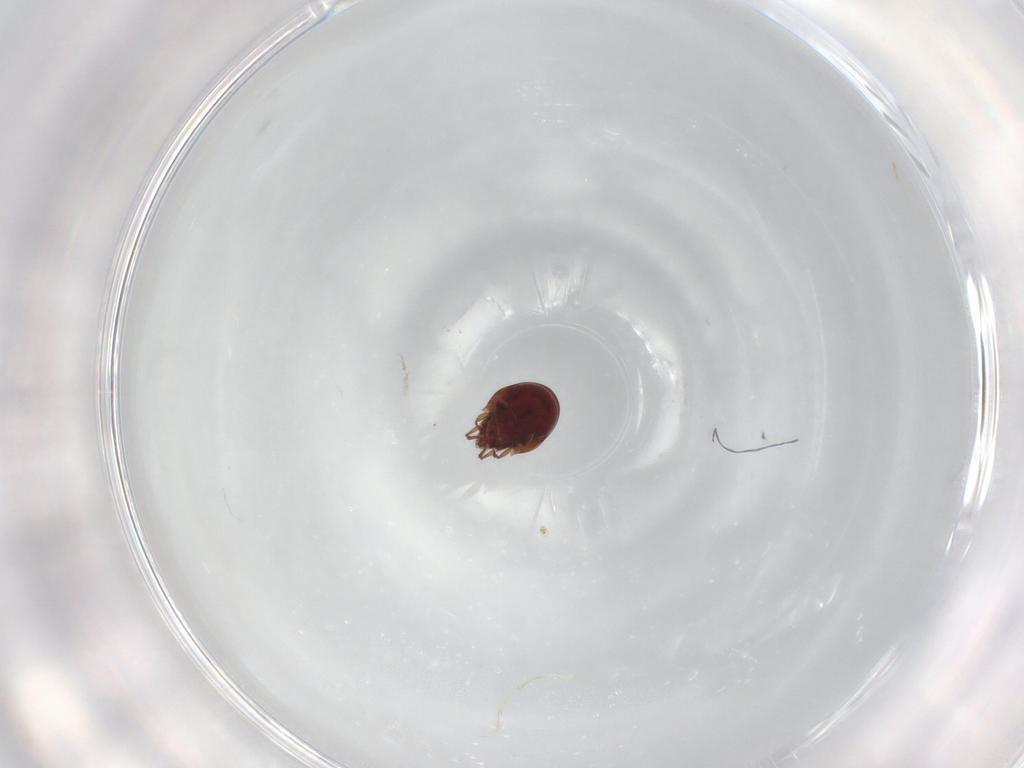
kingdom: Animalia
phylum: Arthropoda
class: Arachnida
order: Sarcoptiformes
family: Ceratozetidae
